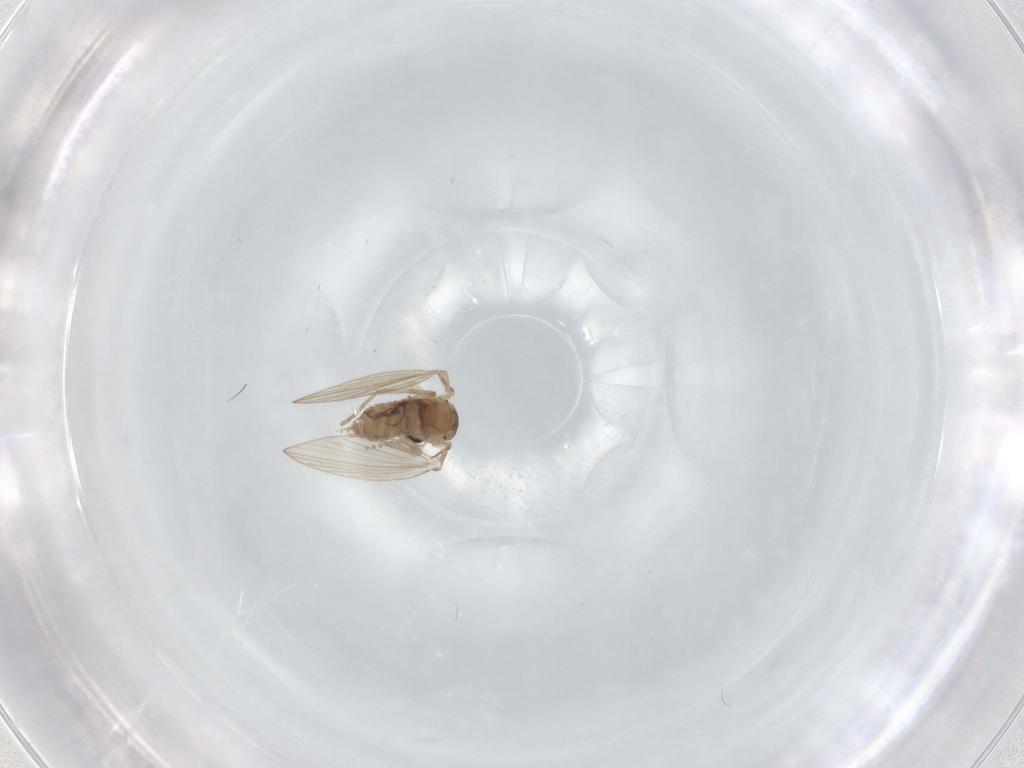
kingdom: Animalia
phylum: Arthropoda
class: Insecta
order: Diptera
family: Psychodidae
